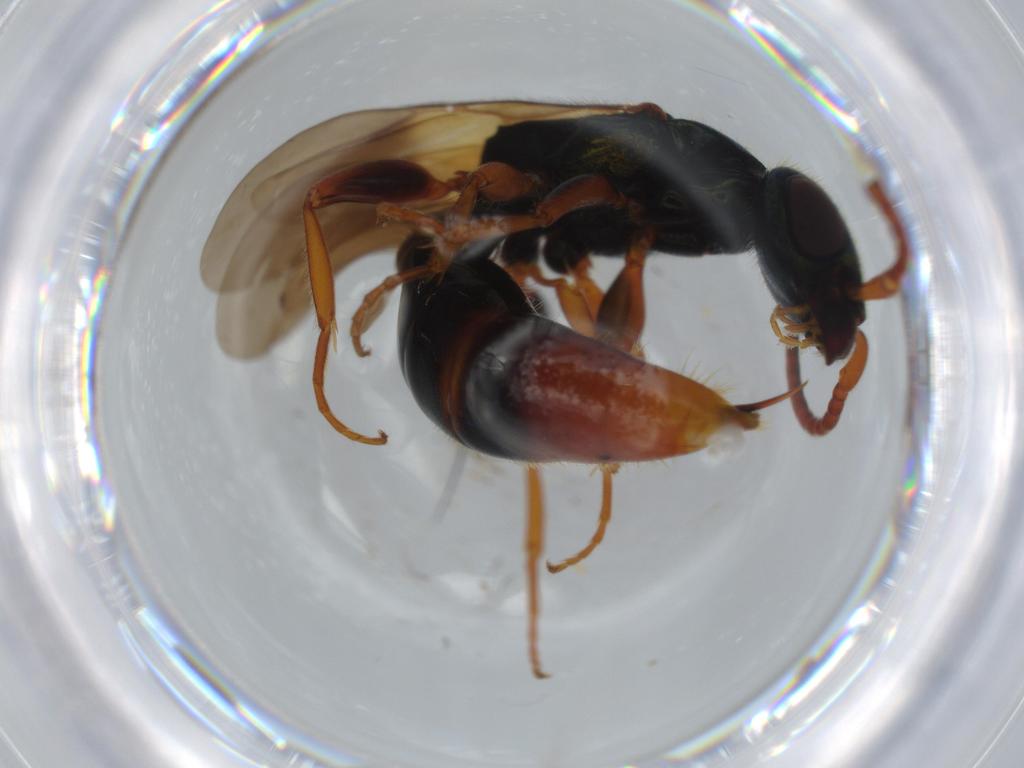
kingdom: Animalia
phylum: Arthropoda
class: Insecta
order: Hymenoptera
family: Bethylidae
